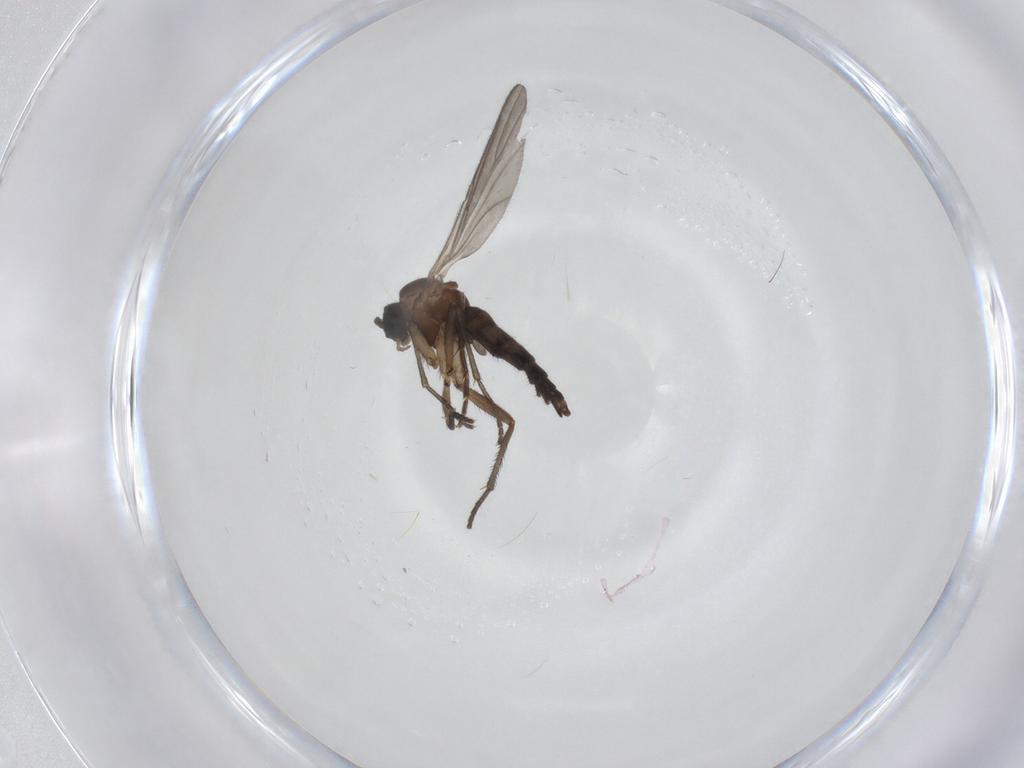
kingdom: Animalia
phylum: Arthropoda
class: Insecta
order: Diptera
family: Sciaridae
